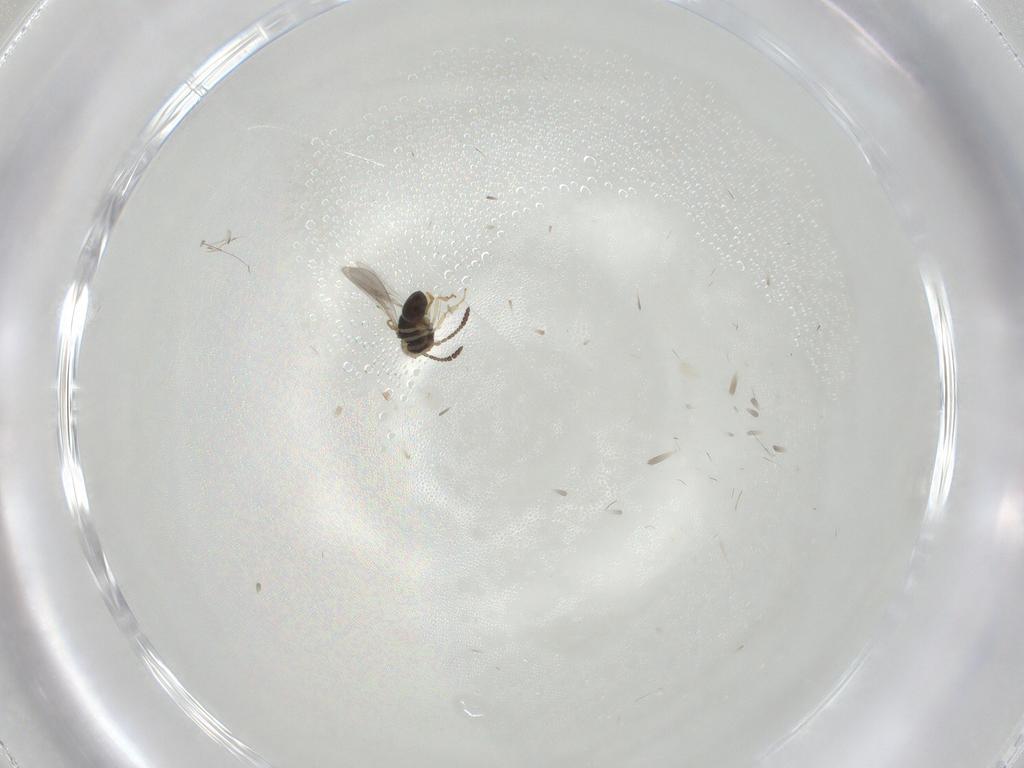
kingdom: Animalia
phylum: Arthropoda
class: Insecta
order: Hymenoptera
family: Scelionidae
